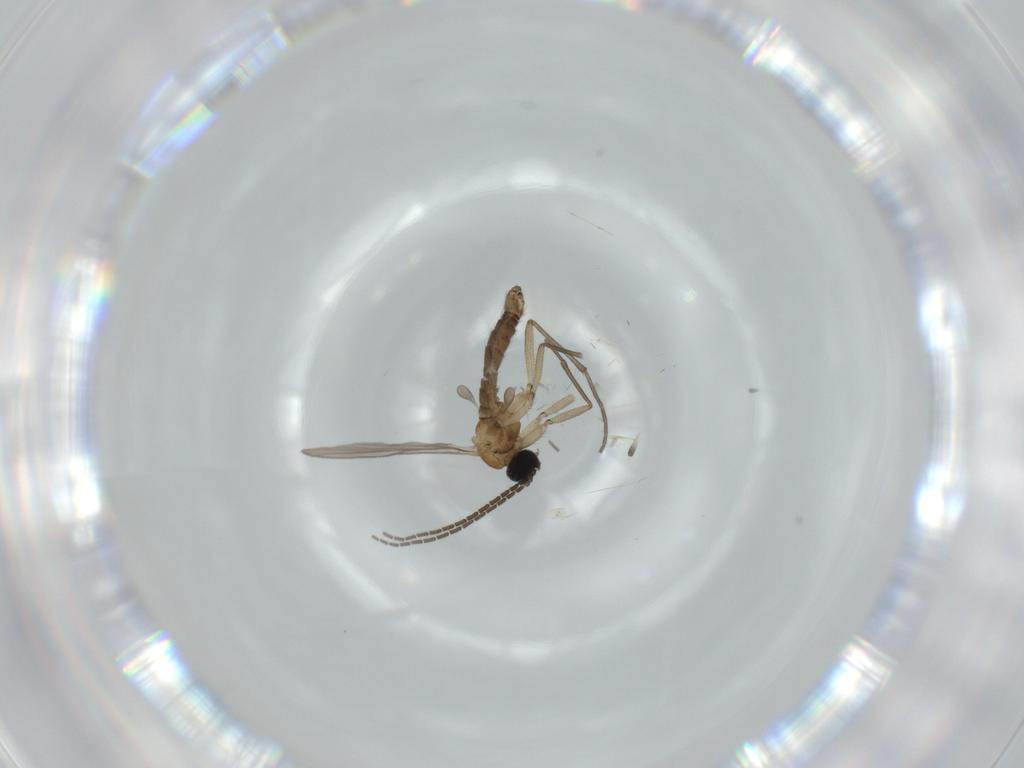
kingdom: Animalia
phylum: Arthropoda
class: Insecta
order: Diptera
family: Sciaridae
